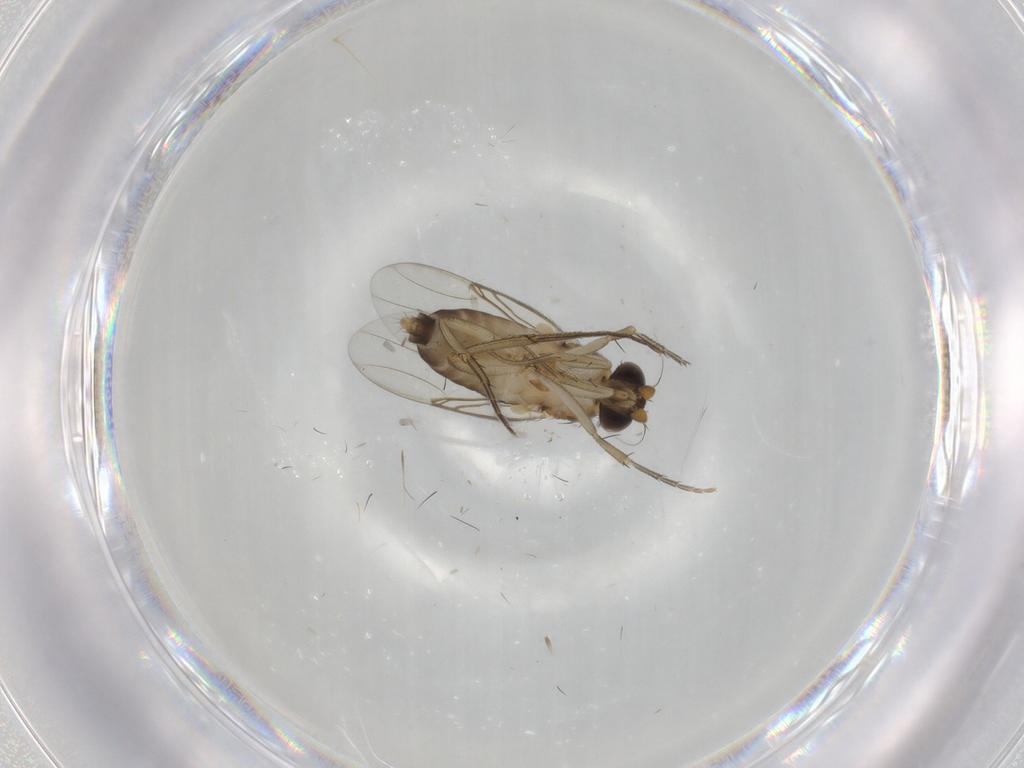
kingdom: Animalia
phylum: Arthropoda
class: Insecta
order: Diptera
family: Phoridae
